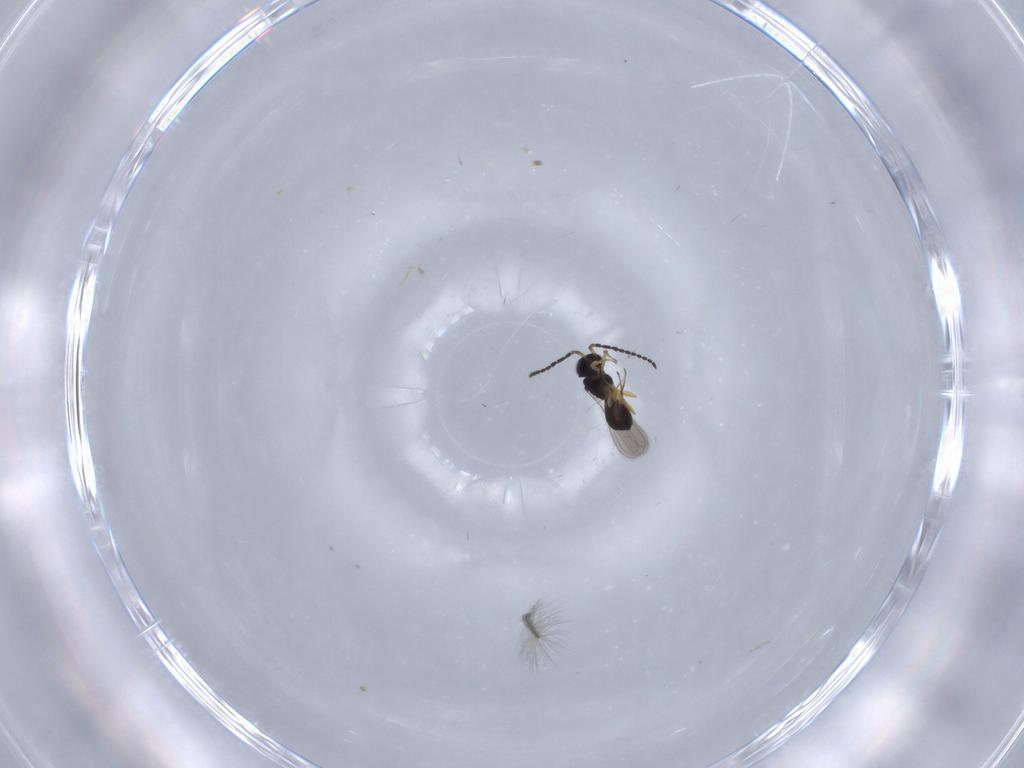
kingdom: Animalia
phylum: Arthropoda
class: Insecta
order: Hymenoptera
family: Scelionidae
